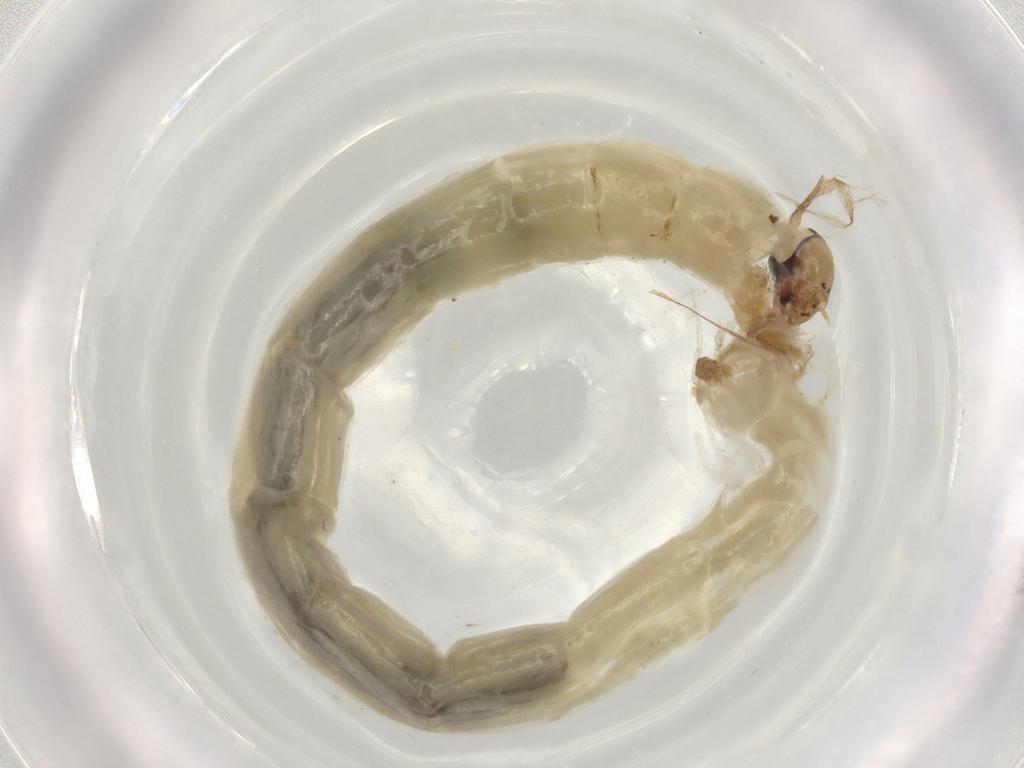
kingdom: Animalia
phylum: Arthropoda
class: Insecta
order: Diptera
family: Chironomidae
